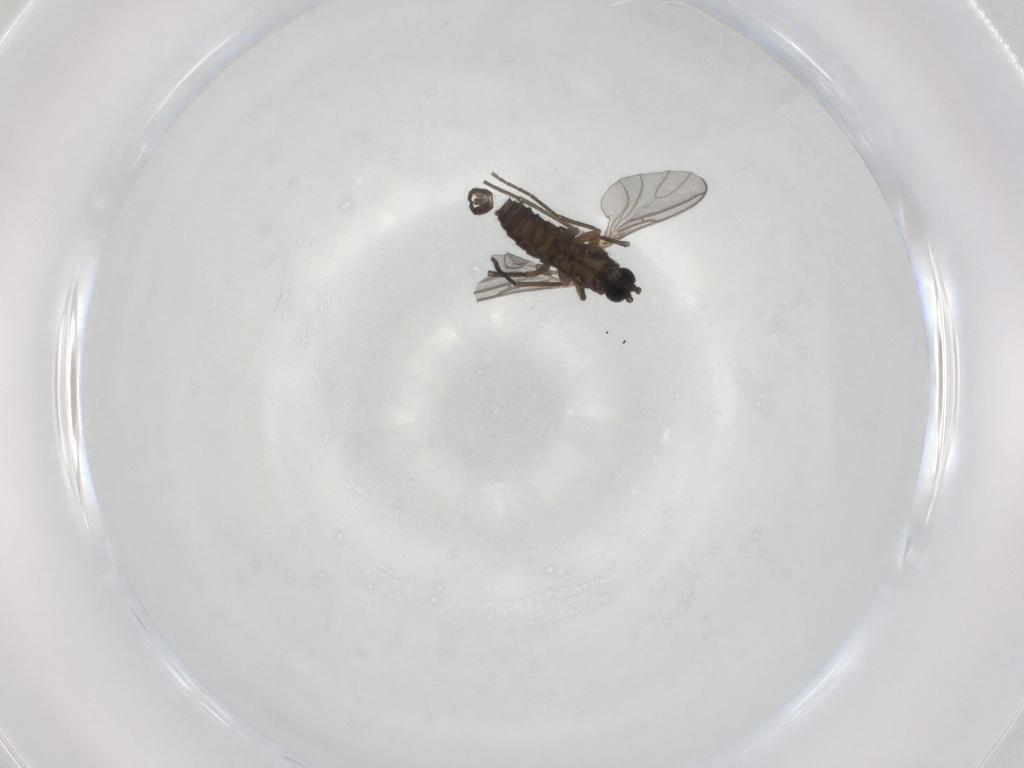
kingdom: Animalia
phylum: Arthropoda
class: Insecta
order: Diptera
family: Sciaridae
